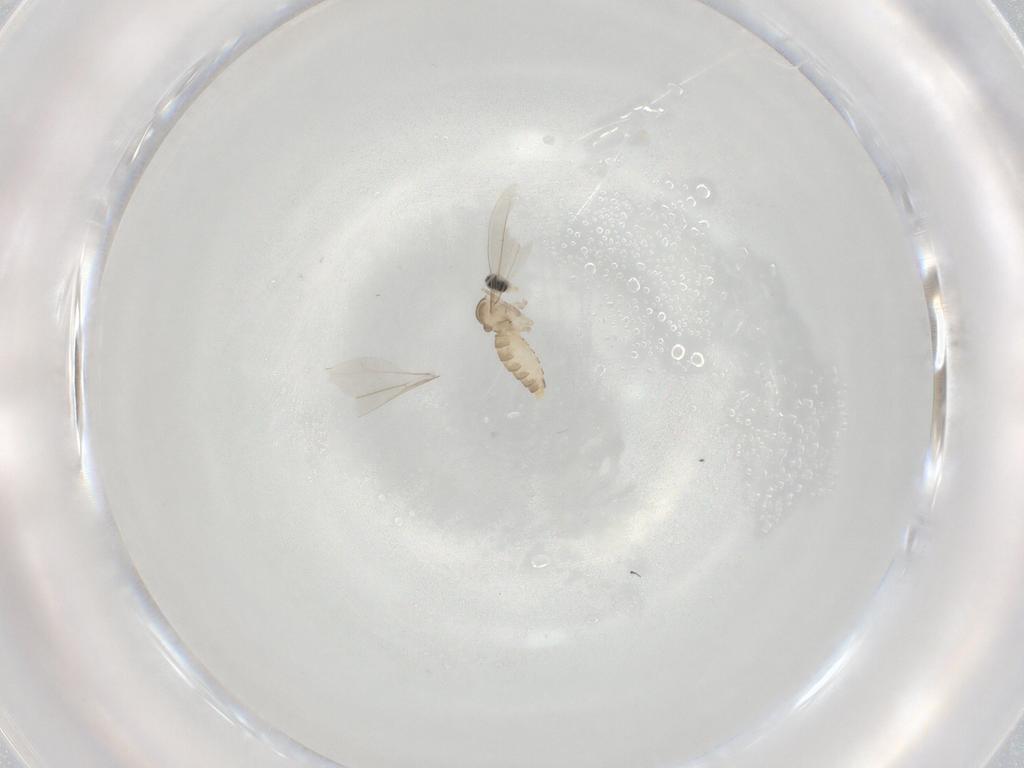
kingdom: Animalia
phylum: Arthropoda
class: Insecta
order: Diptera
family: Cecidomyiidae
